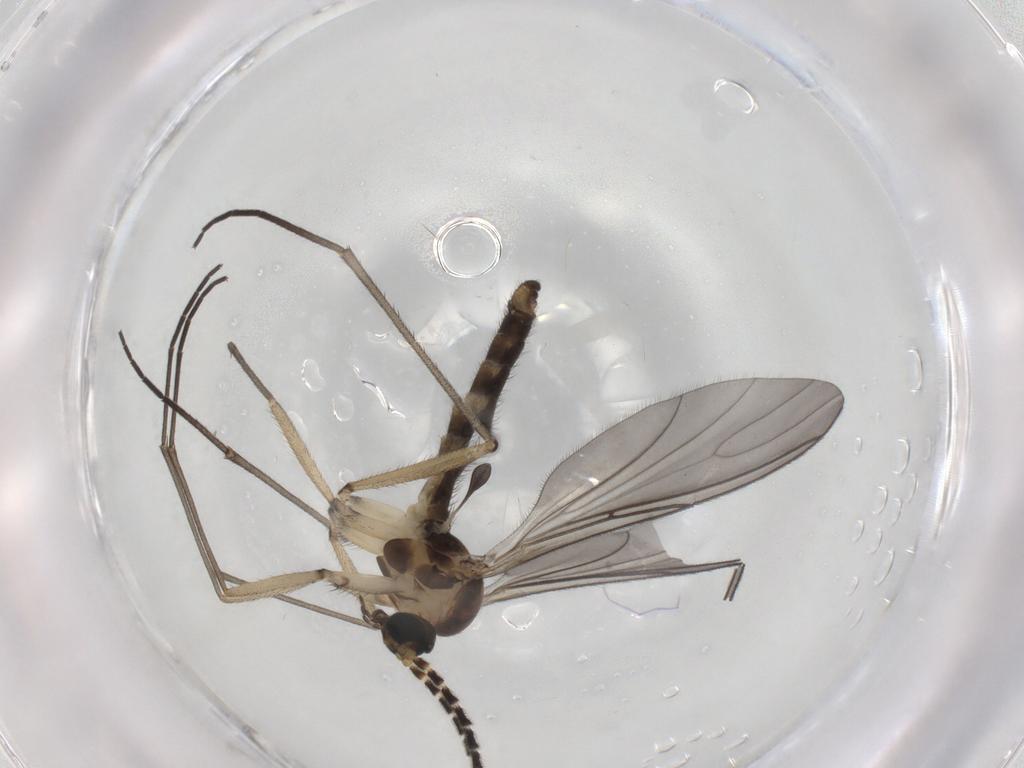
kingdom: Animalia
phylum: Arthropoda
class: Insecta
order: Diptera
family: Sciaridae
